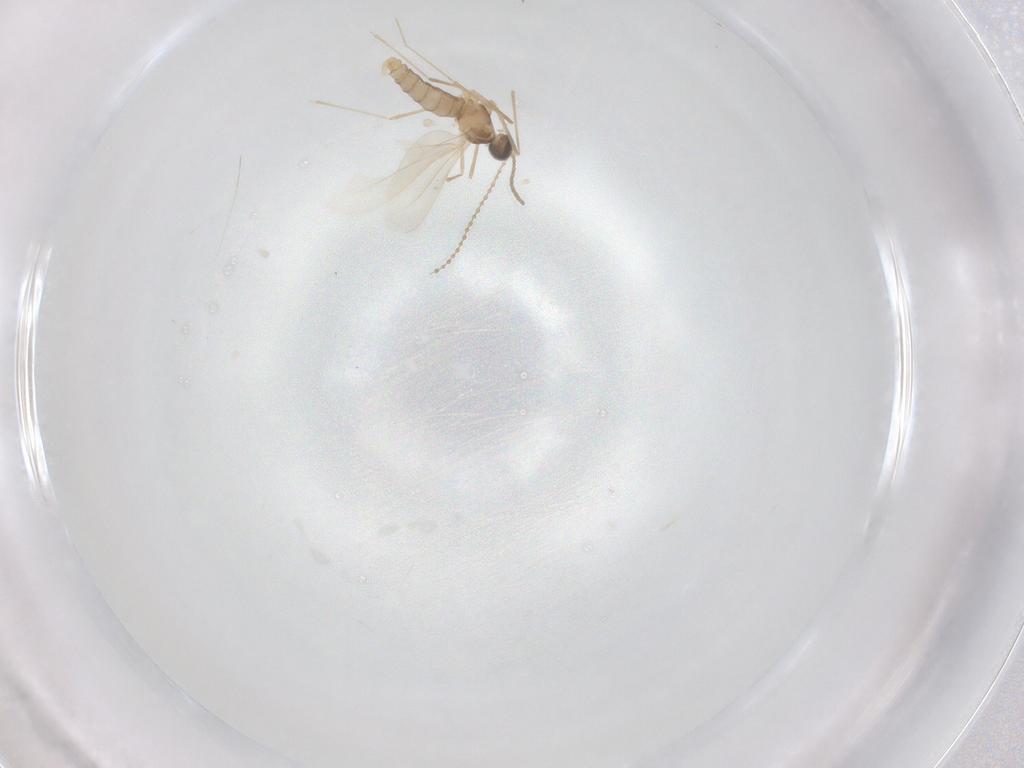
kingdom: Animalia
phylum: Arthropoda
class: Insecta
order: Diptera
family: Cecidomyiidae
